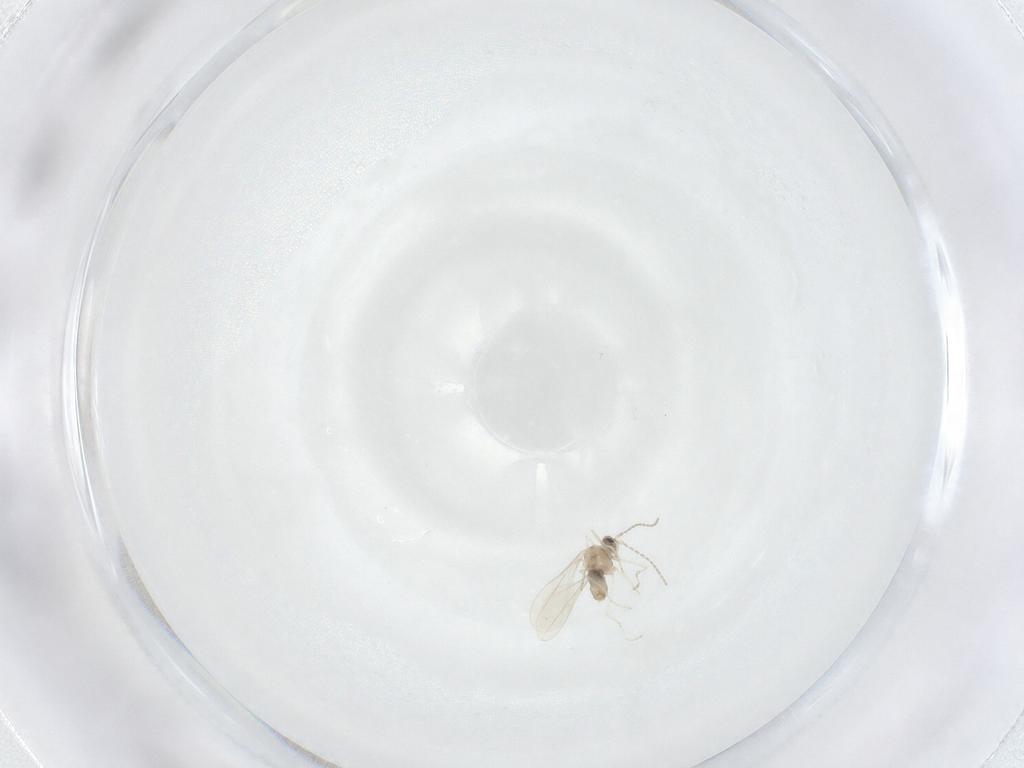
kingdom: Animalia
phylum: Arthropoda
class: Insecta
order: Diptera
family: Cecidomyiidae
